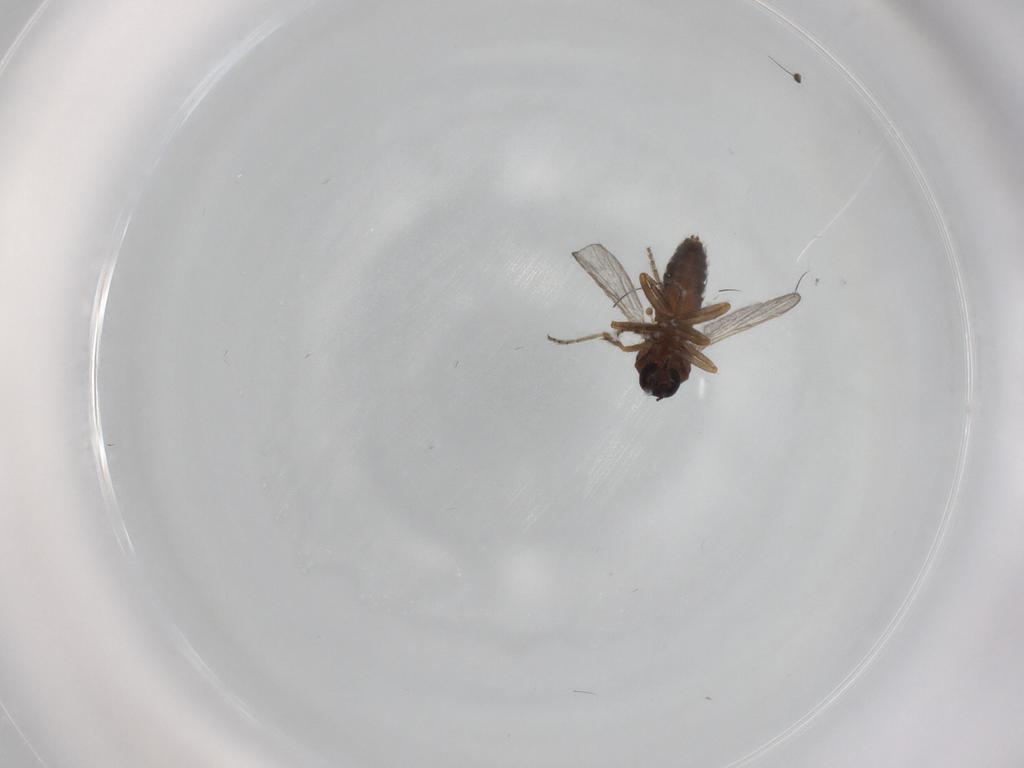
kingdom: Animalia
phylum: Arthropoda
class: Insecta
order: Diptera
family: Ceratopogonidae
